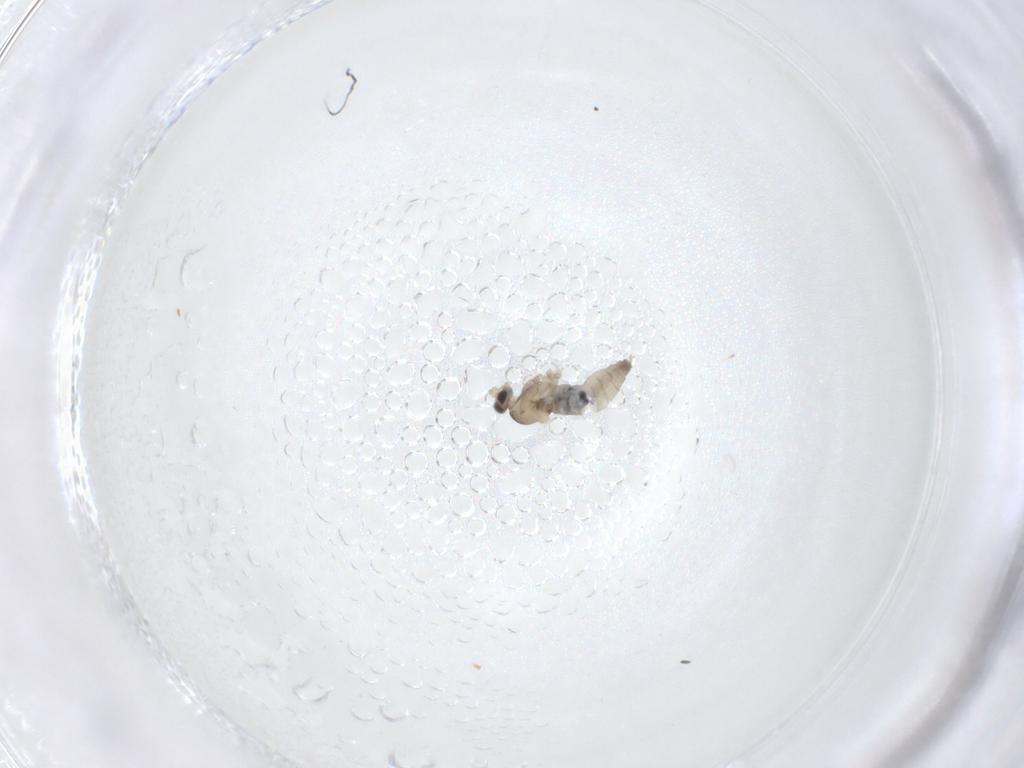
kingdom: Animalia
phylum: Arthropoda
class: Insecta
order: Diptera
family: Cecidomyiidae
